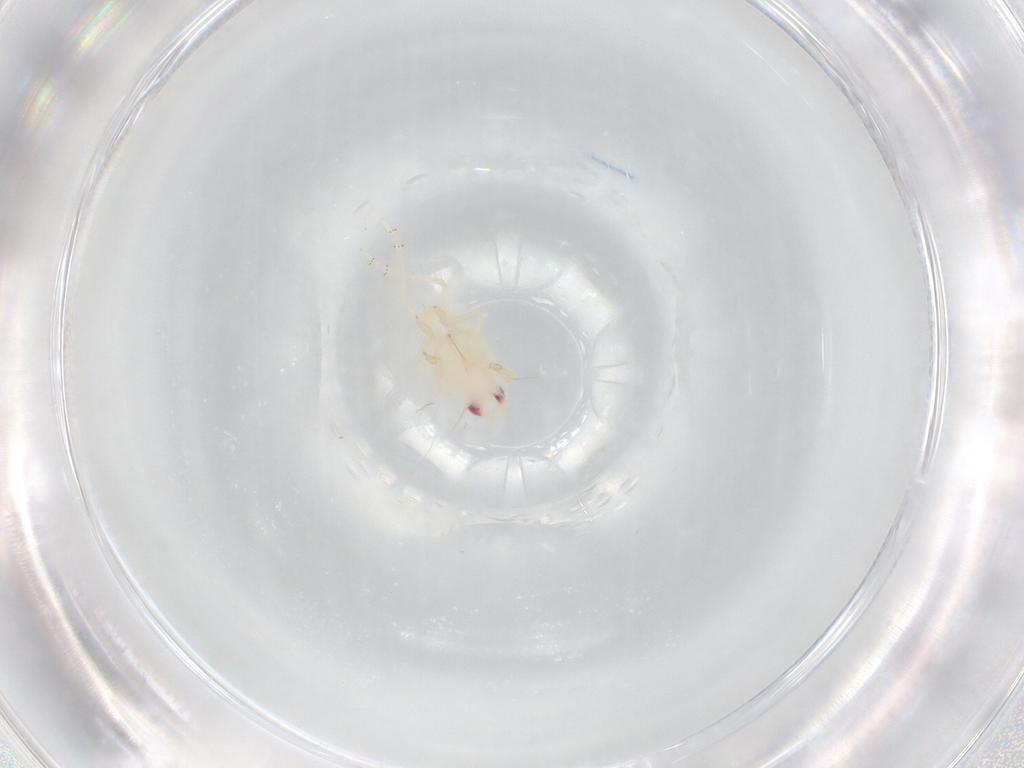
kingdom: Animalia
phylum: Arthropoda
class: Insecta
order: Hemiptera
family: Tropiduchidae
